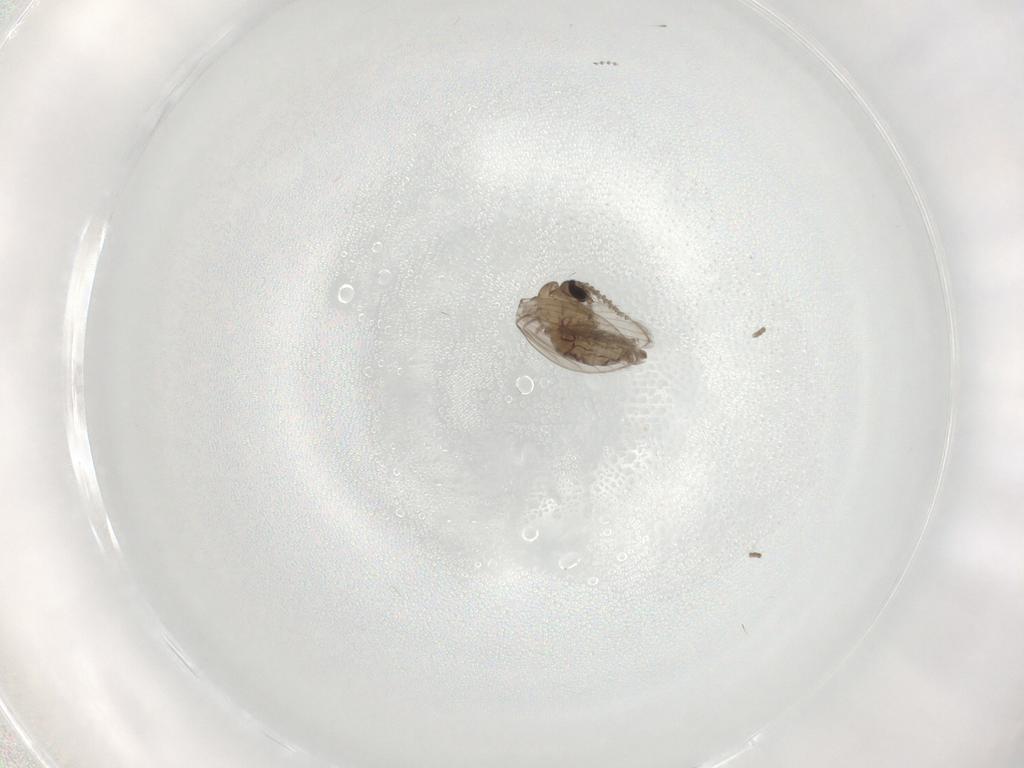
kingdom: Animalia
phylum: Arthropoda
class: Insecta
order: Diptera
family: Psychodidae
